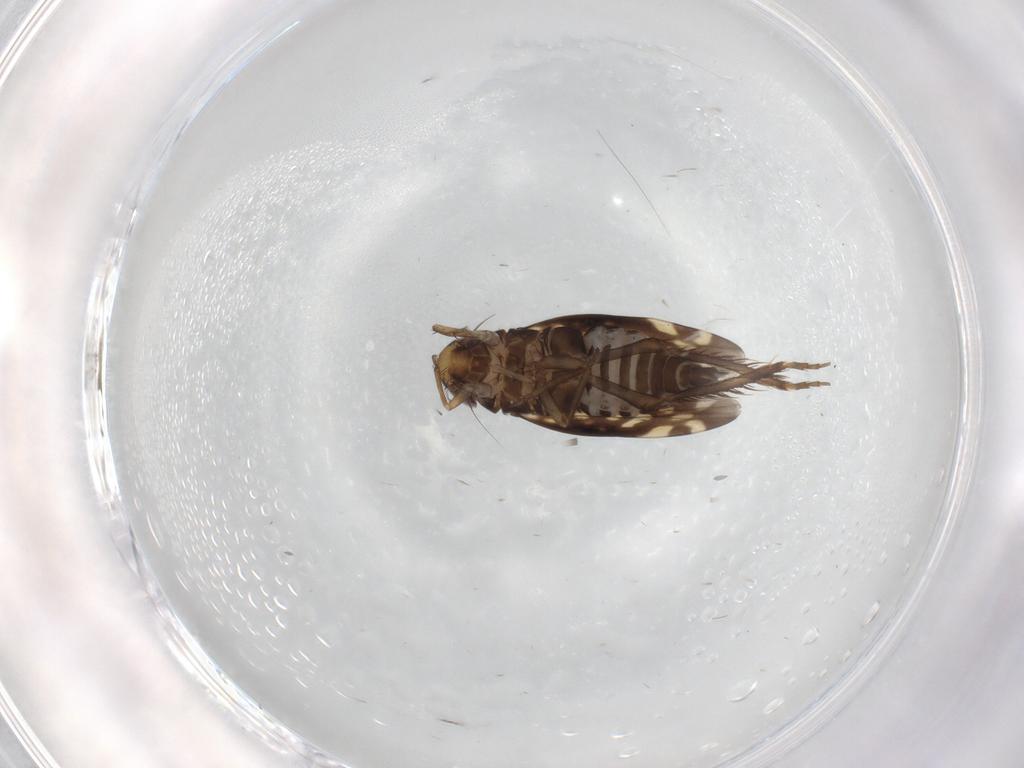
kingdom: Animalia
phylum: Arthropoda
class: Insecta
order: Hemiptera
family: Cicadellidae
